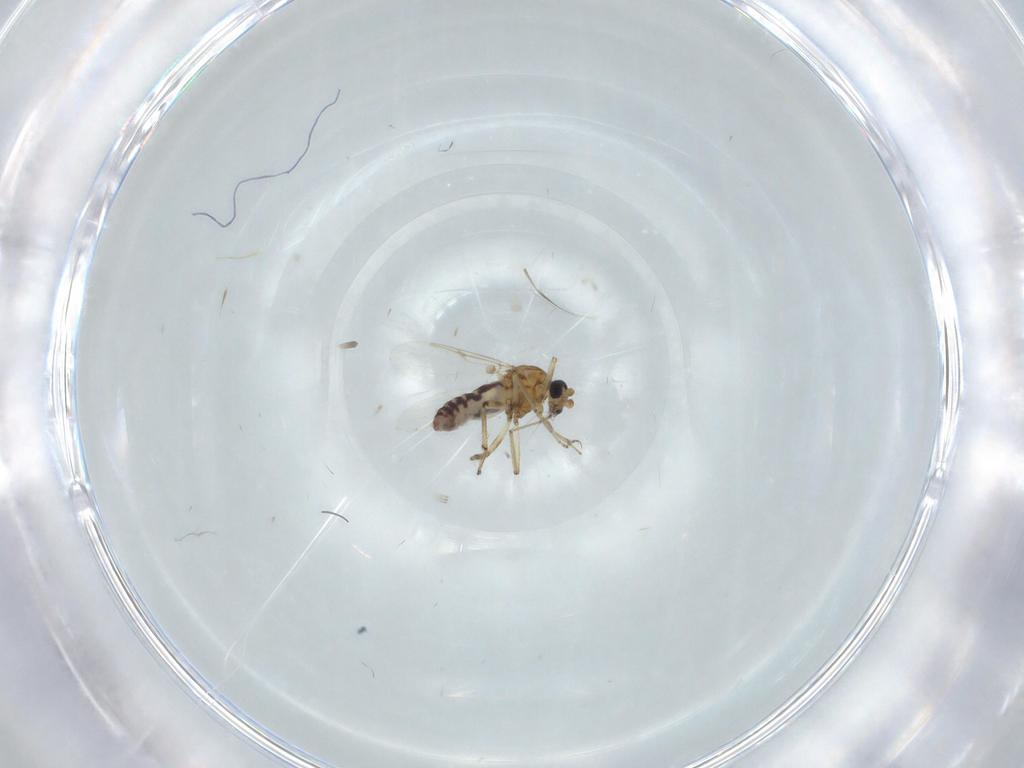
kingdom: Animalia
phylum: Arthropoda
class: Insecta
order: Diptera
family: Ceratopogonidae
